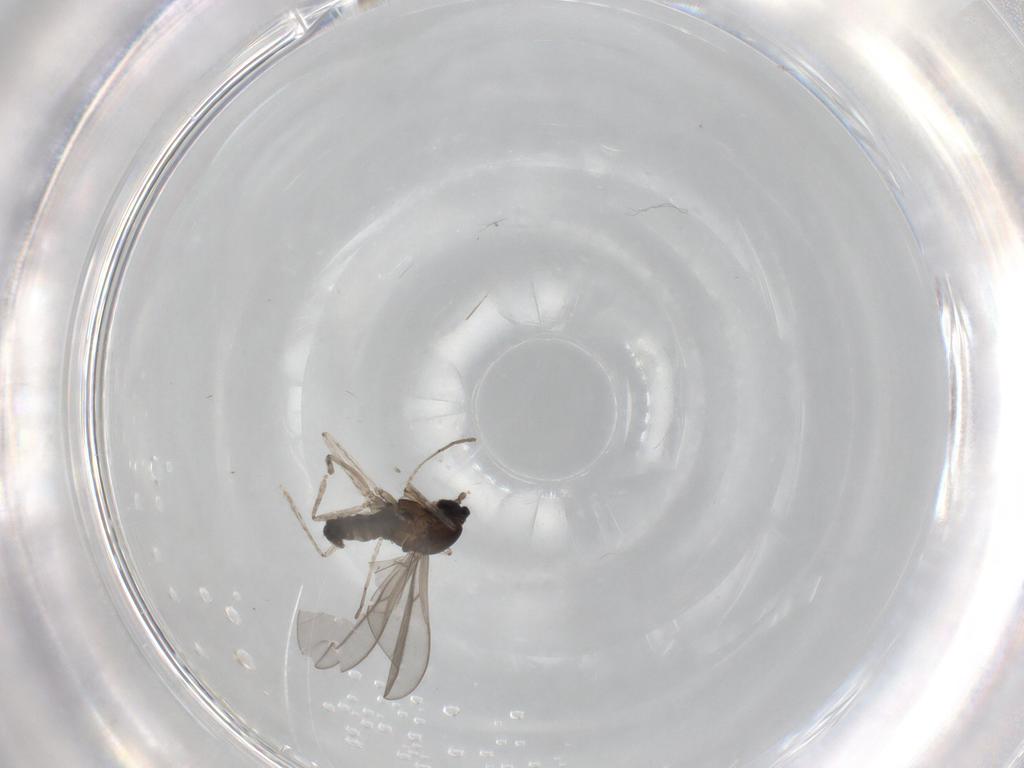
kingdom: Animalia
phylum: Arthropoda
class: Insecta
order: Diptera
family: Cecidomyiidae
